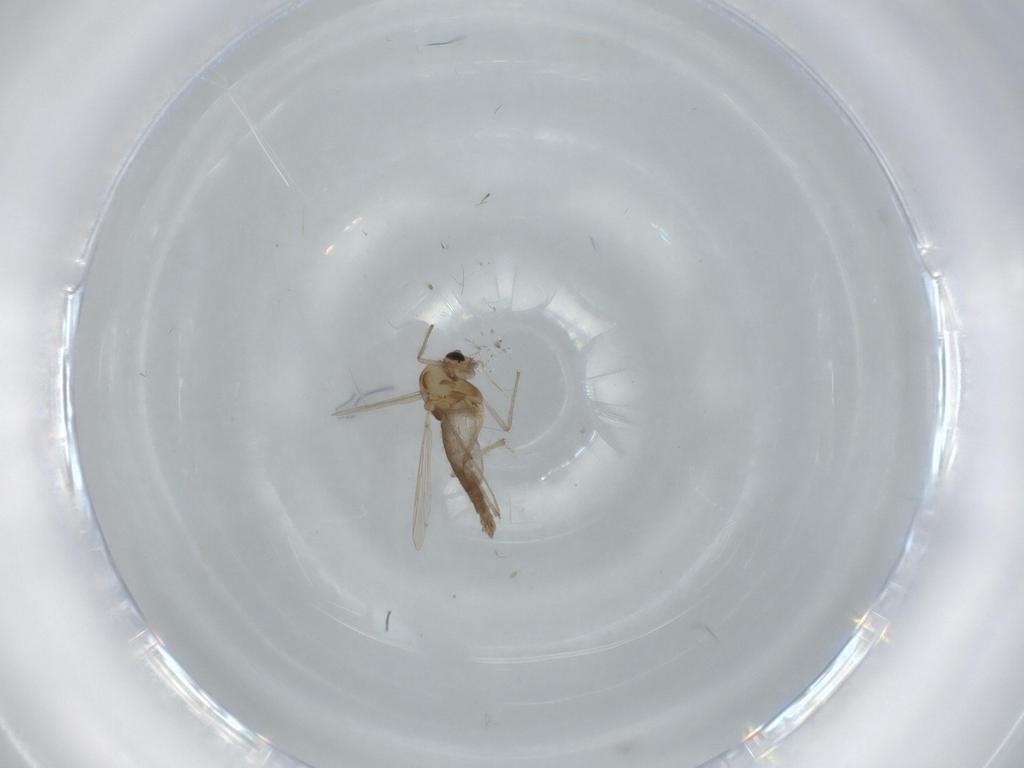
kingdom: Animalia
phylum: Arthropoda
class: Insecta
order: Diptera
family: Chironomidae
